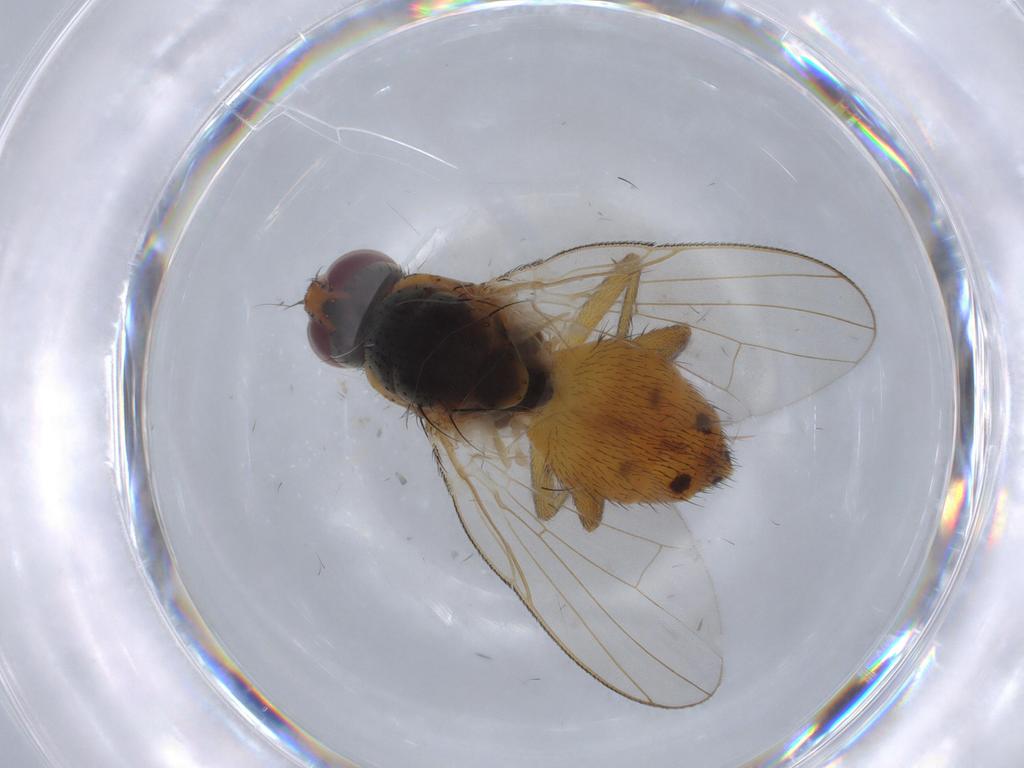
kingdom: Animalia
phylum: Arthropoda
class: Insecta
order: Diptera
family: Muscidae
